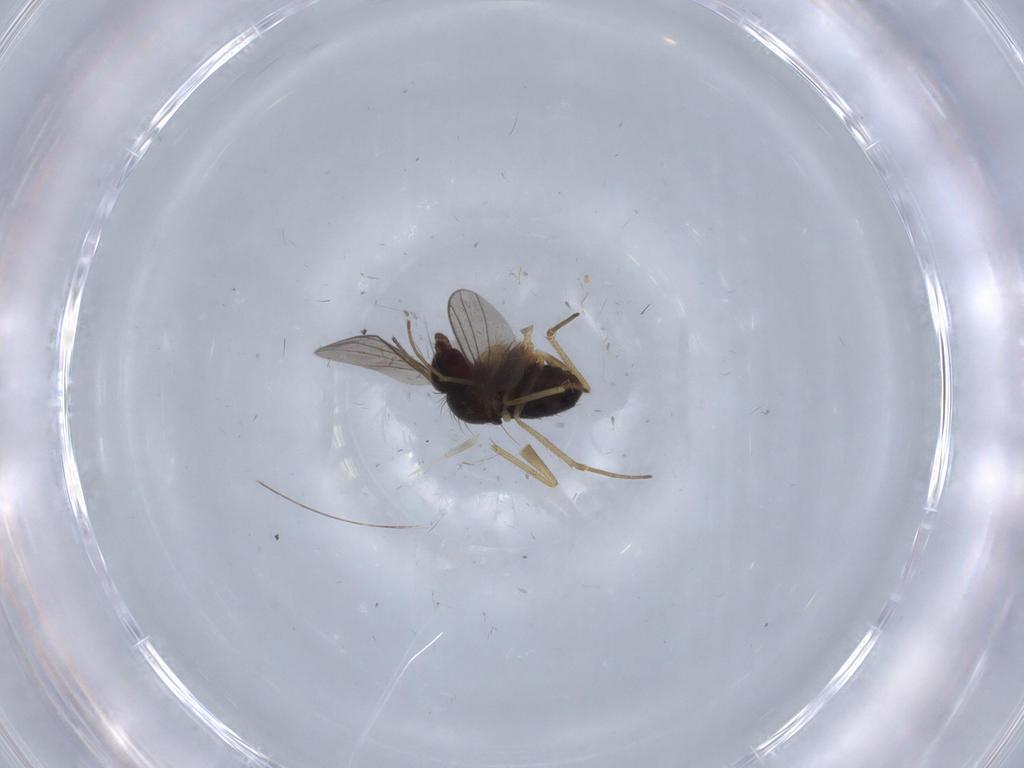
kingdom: Animalia
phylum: Arthropoda
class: Insecta
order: Diptera
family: Dolichopodidae
